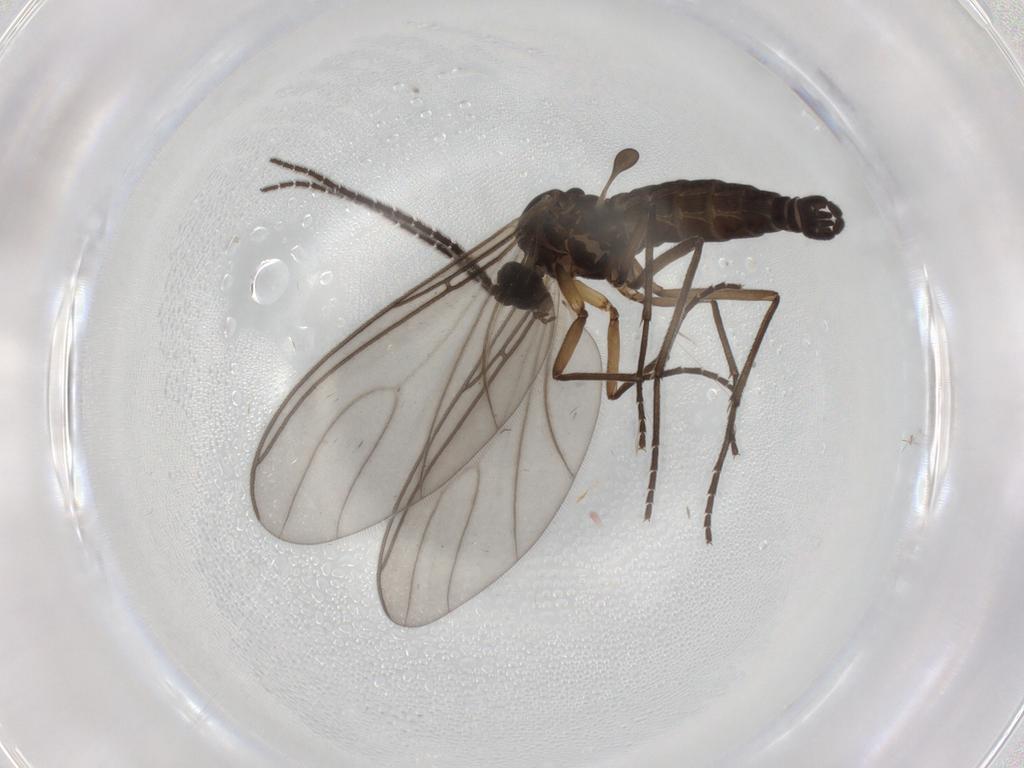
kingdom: Animalia
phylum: Arthropoda
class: Insecta
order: Diptera
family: Sciaridae
